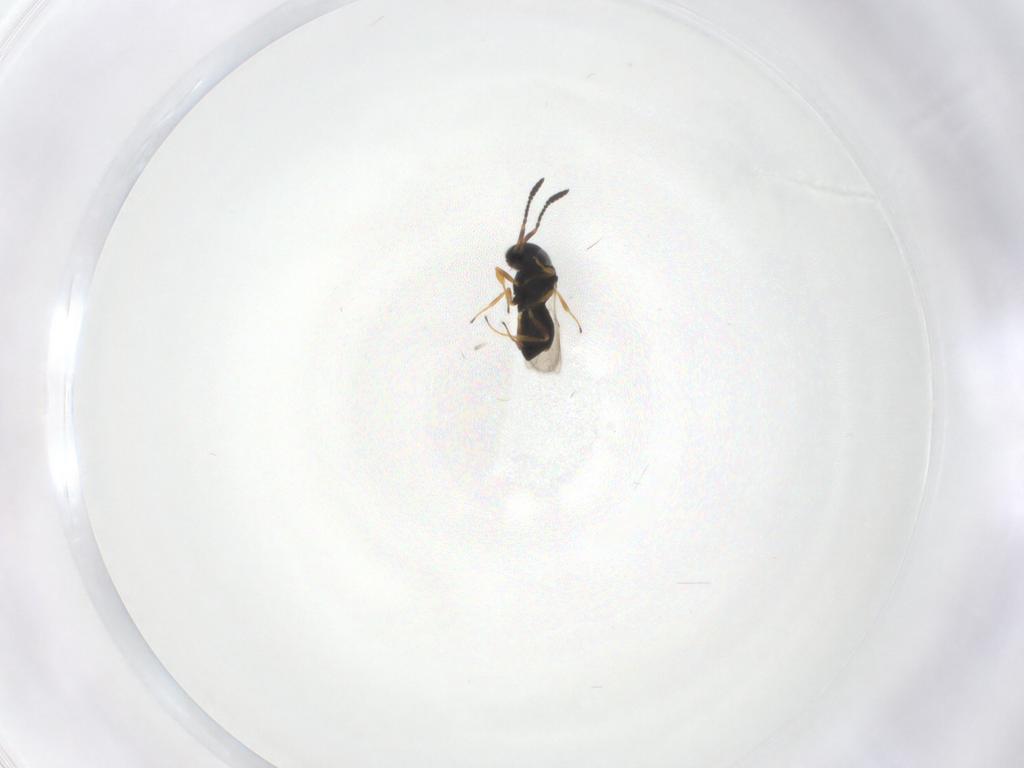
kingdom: Animalia
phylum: Arthropoda
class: Insecta
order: Hymenoptera
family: Scelionidae
